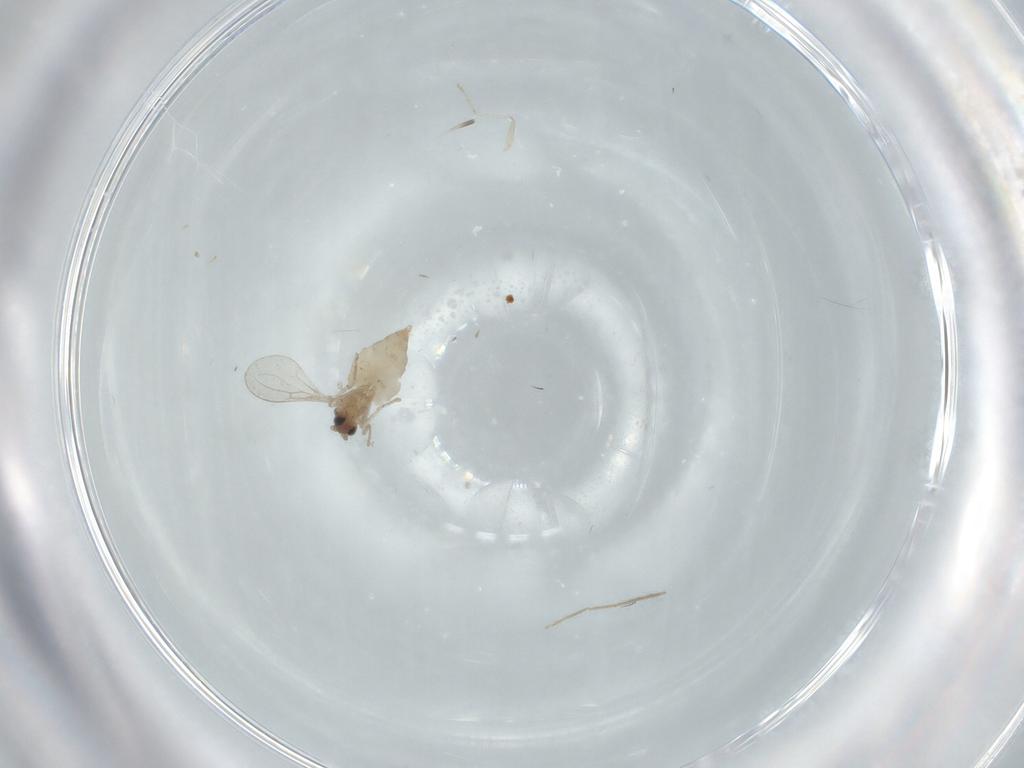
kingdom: Animalia
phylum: Arthropoda
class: Insecta
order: Diptera
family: Cecidomyiidae
